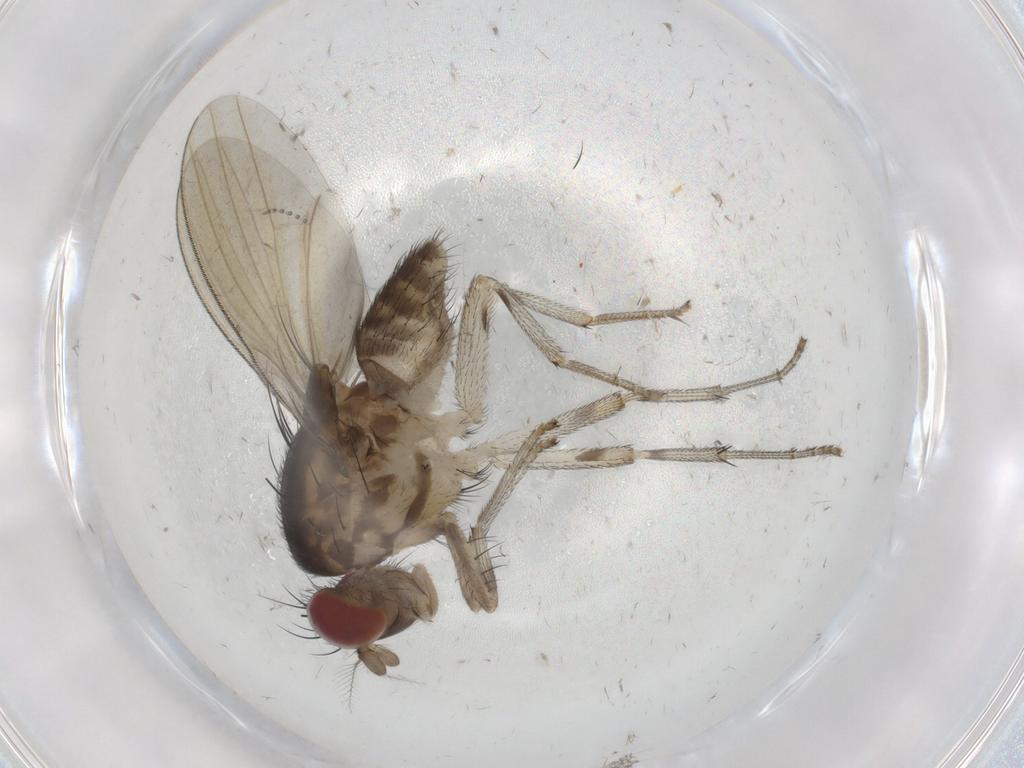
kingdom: Animalia
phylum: Arthropoda
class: Insecta
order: Diptera
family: Lauxaniidae
